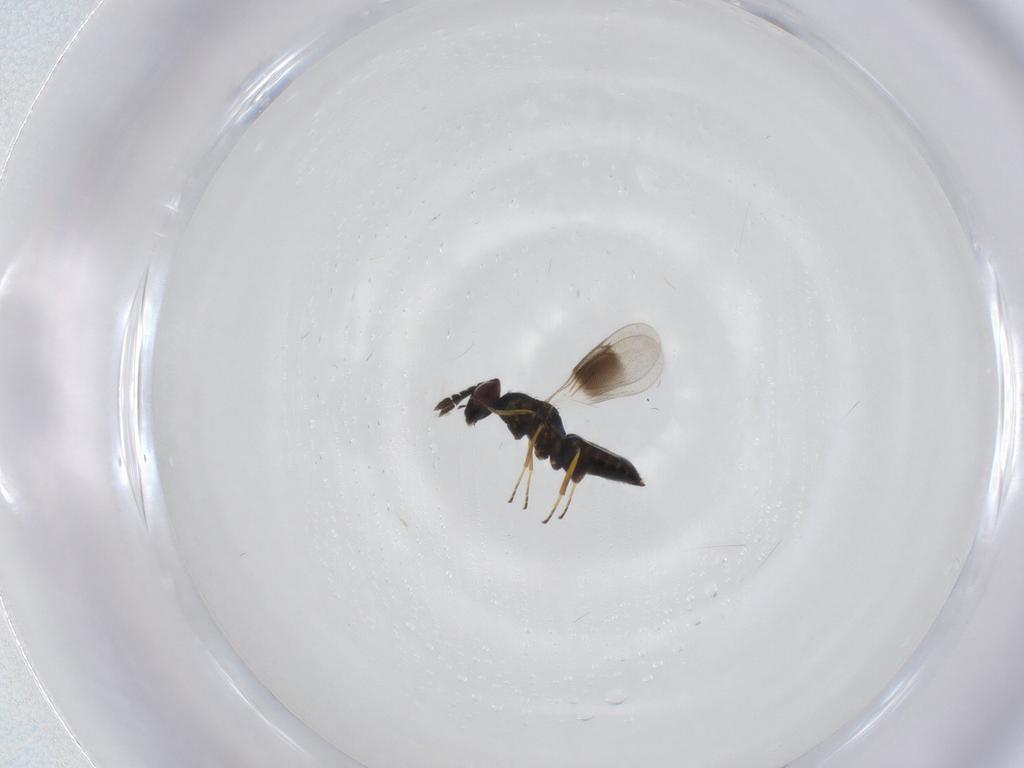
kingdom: Animalia
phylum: Arthropoda
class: Insecta
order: Hymenoptera
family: Eulophidae
